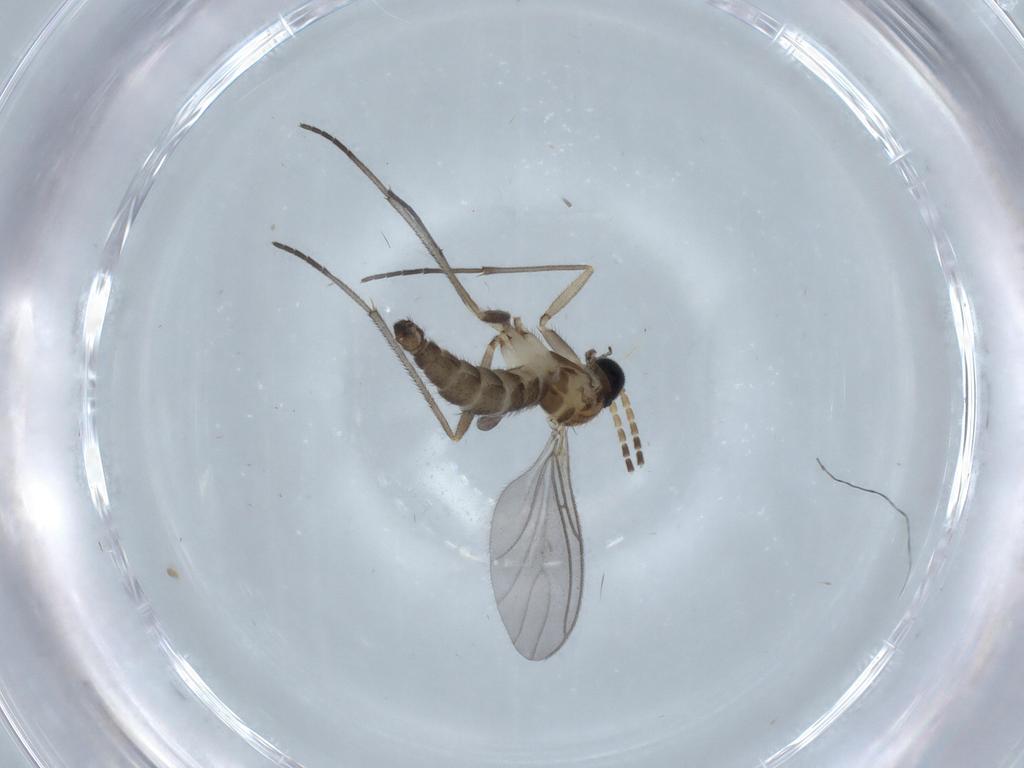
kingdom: Animalia
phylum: Arthropoda
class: Insecta
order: Diptera
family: Sciaridae
